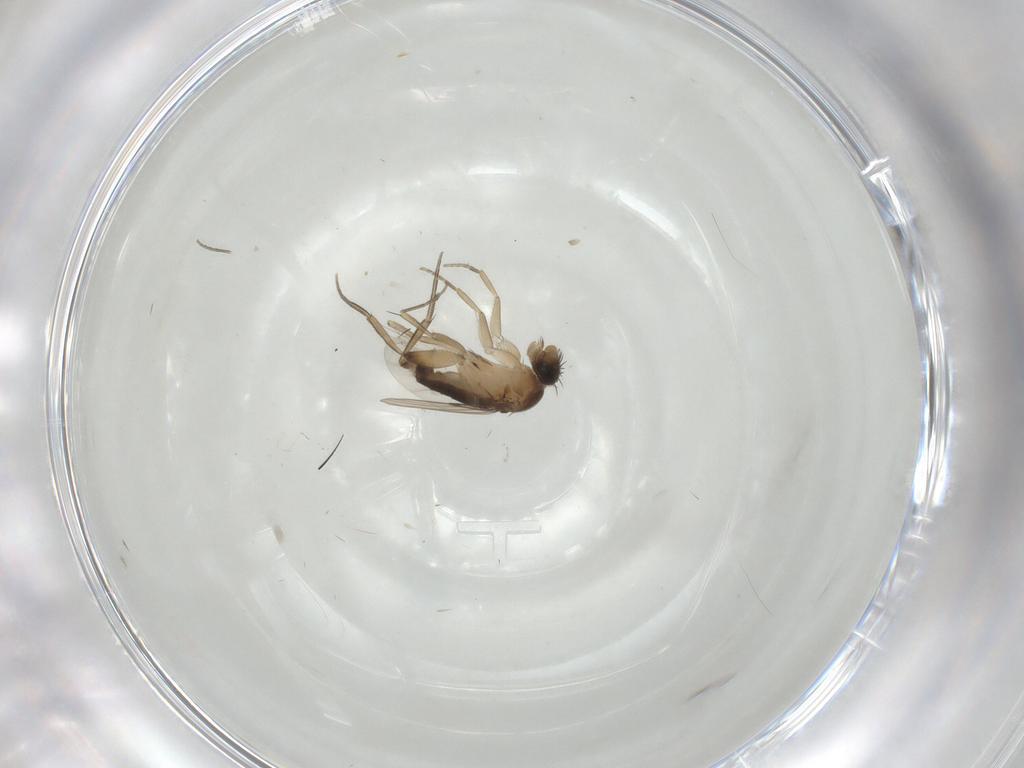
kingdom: Animalia
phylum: Arthropoda
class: Insecta
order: Diptera
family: Phoridae
